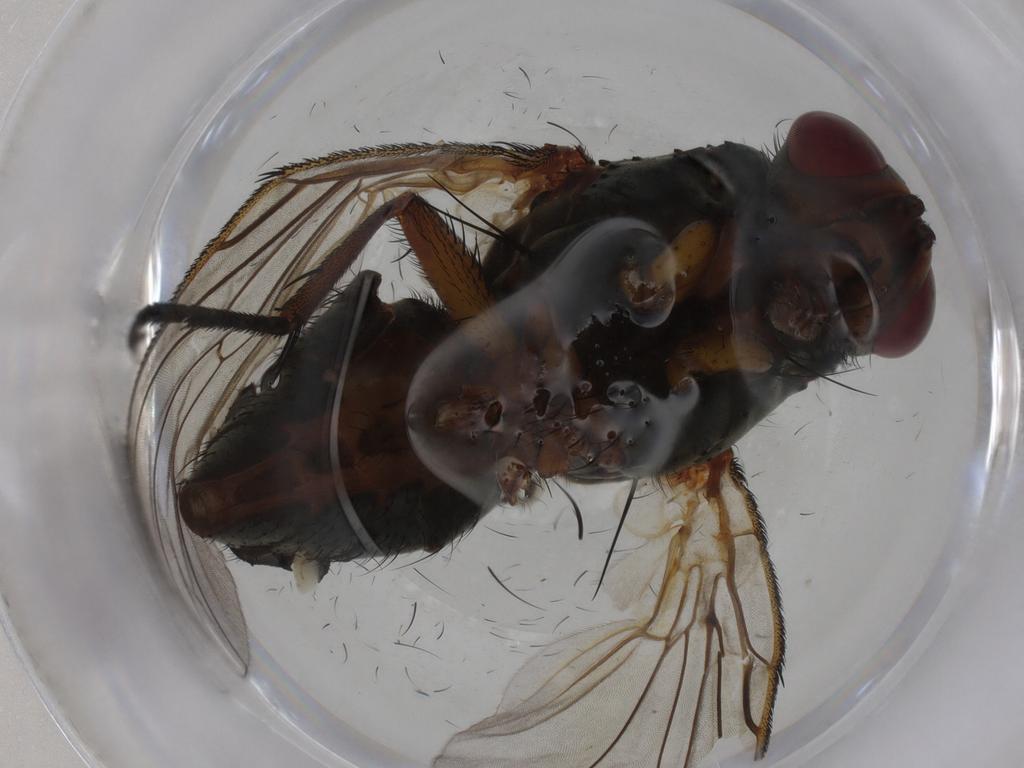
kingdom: Animalia
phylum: Arthropoda
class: Insecta
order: Diptera
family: Anthomyiidae
